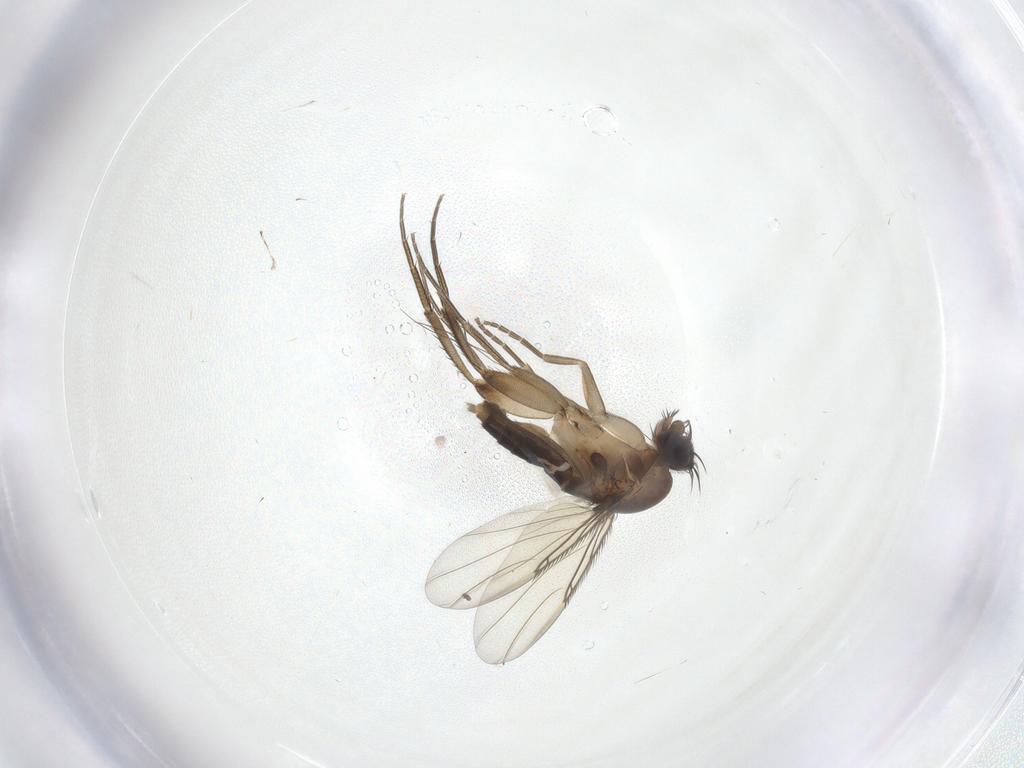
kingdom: Animalia
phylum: Arthropoda
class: Insecta
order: Diptera
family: Phoridae
